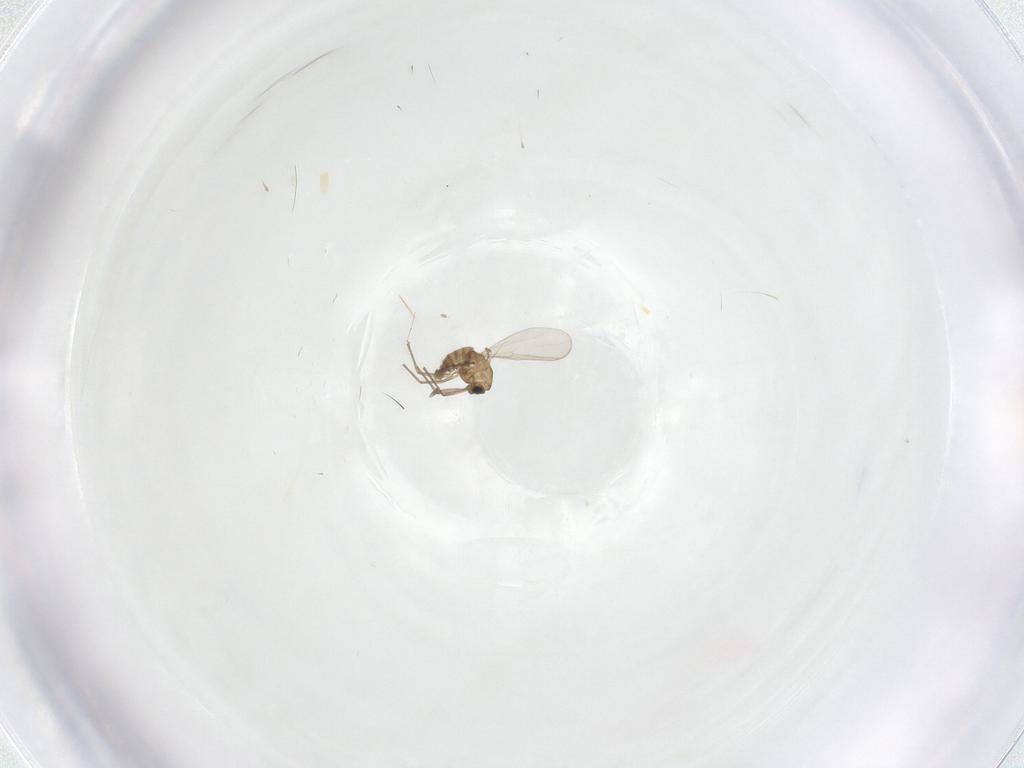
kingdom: Animalia
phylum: Arthropoda
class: Insecta
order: Diptera
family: Chironomidae
